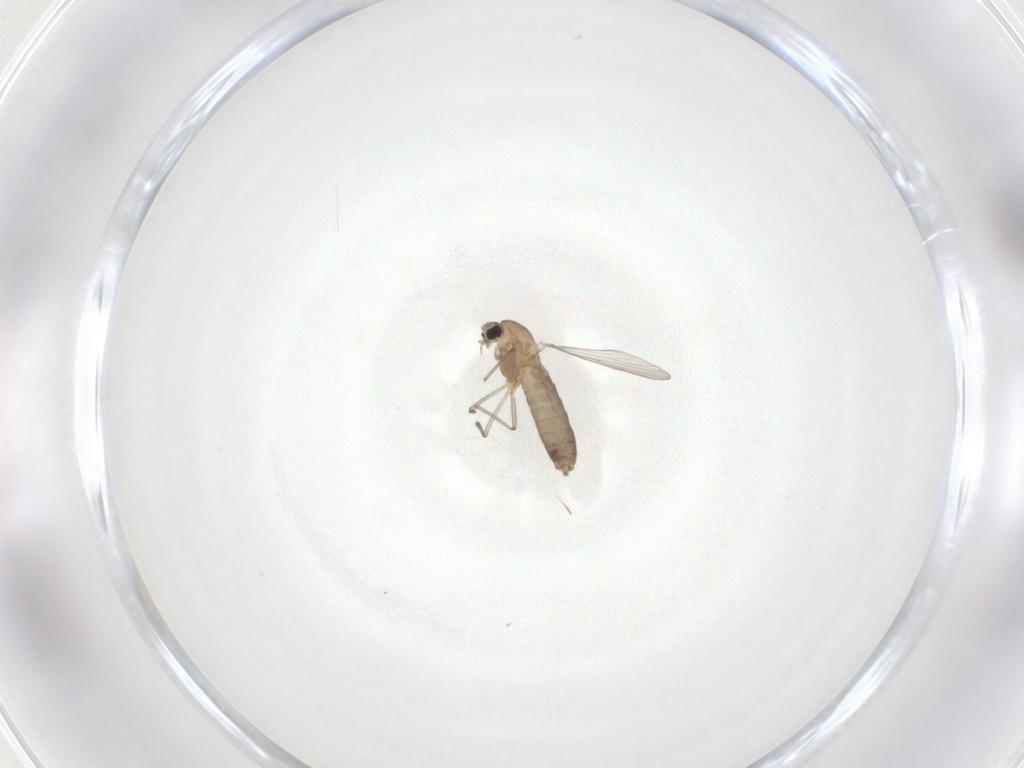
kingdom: Animalia
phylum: Arthropoda
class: Insecta
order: Diptera
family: Chironomidae
